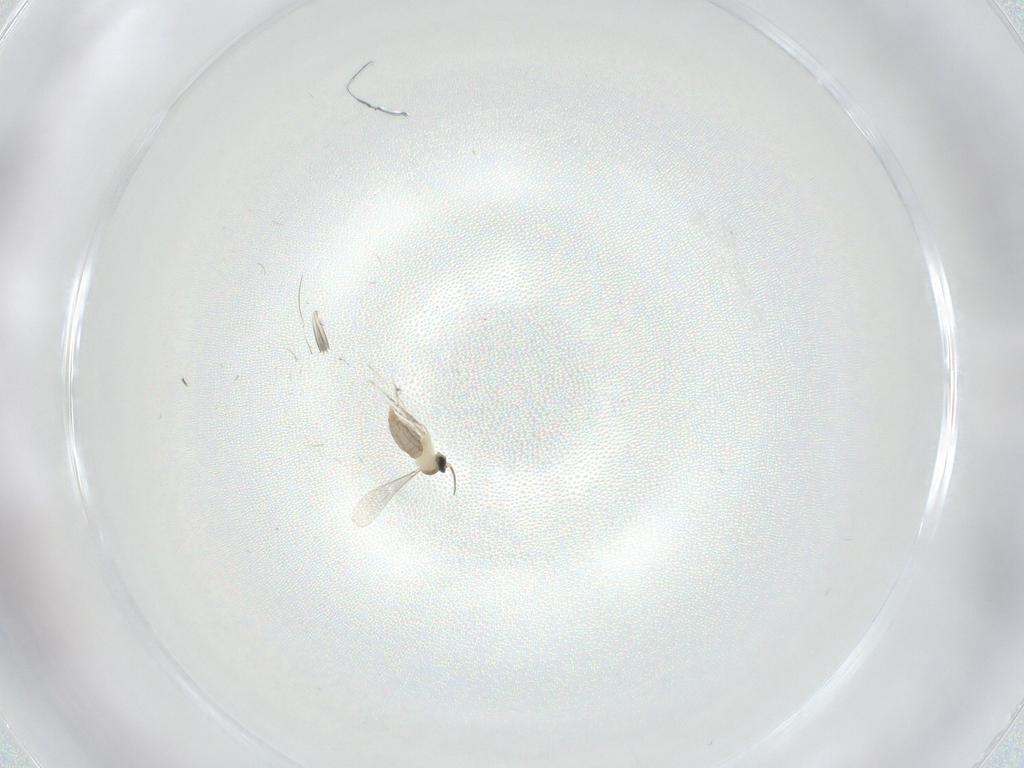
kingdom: Animalia
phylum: Arthropoda
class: Insecta
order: Diptera
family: Cecidomyiidae
